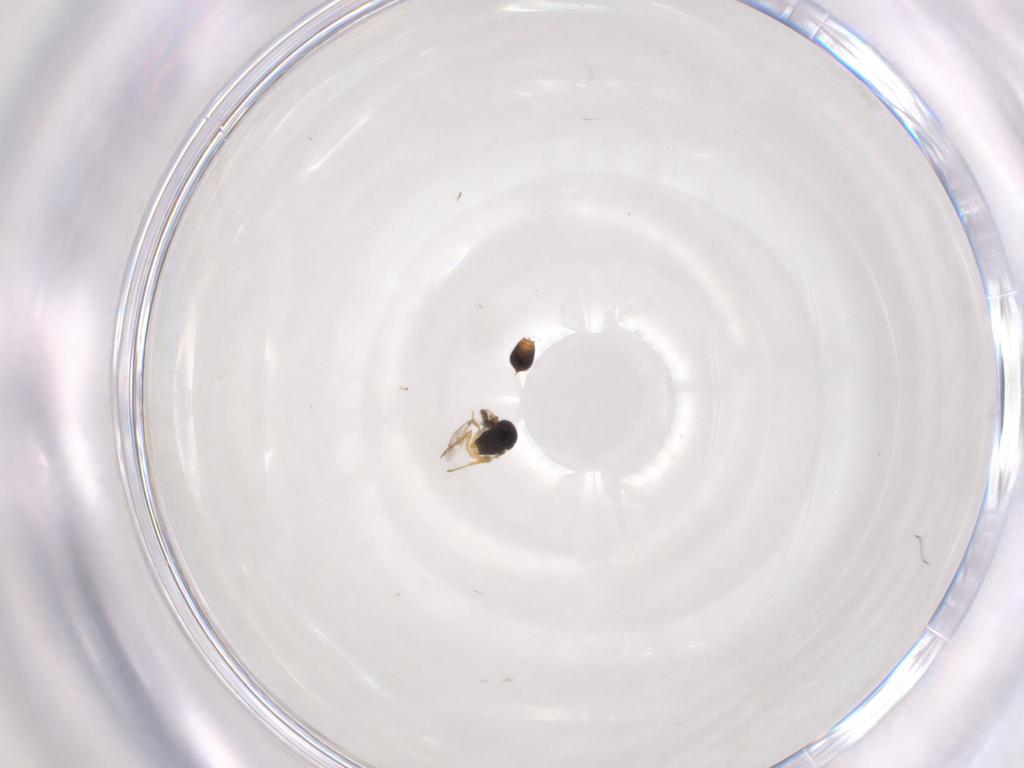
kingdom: Animalia
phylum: Arthropoda
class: Insecta
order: Hymenoptera
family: Scelionidae
